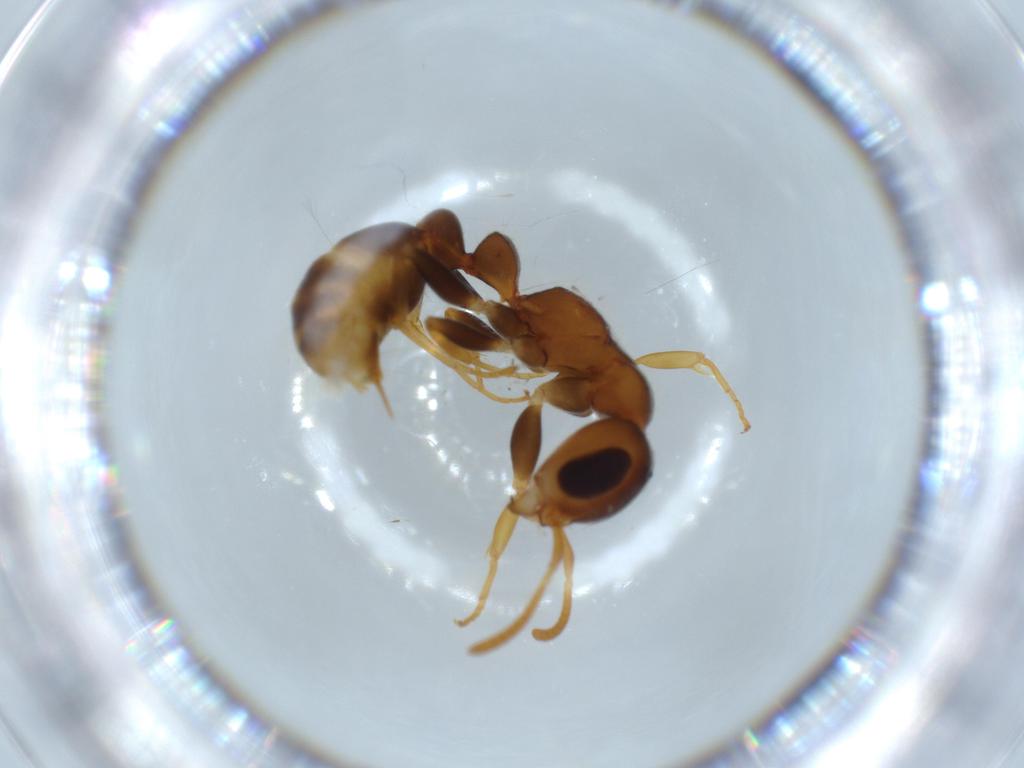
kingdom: Animalia
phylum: Arthropoda
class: Insecta
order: Hymenoptera
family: Formicidae
